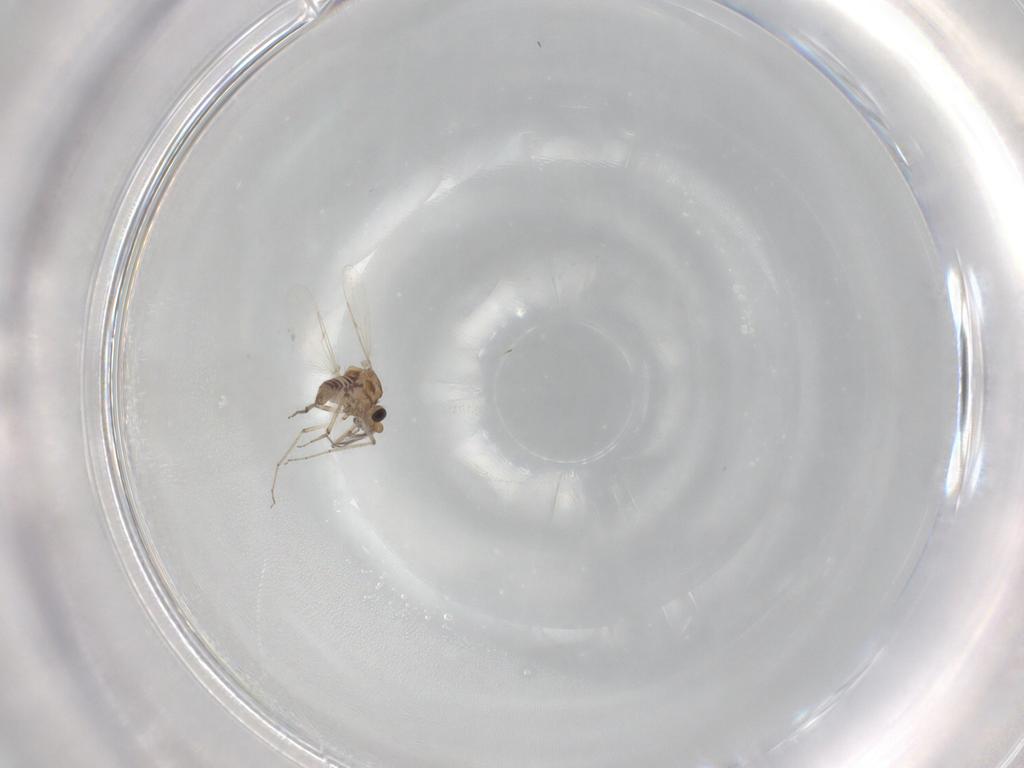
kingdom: Animalia
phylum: Arthropoda
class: Insecta
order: Diptera
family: Ceratopogonidae
